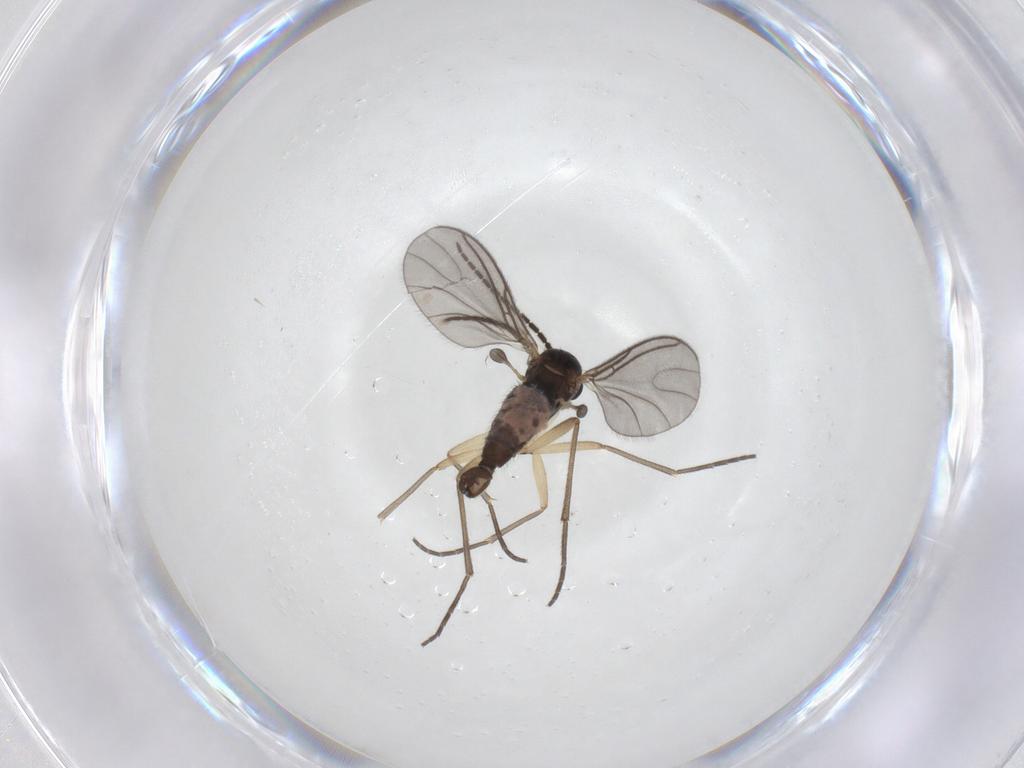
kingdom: Animalia
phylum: Arthropoda
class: Insecta
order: Diptera
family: Sciaridae
